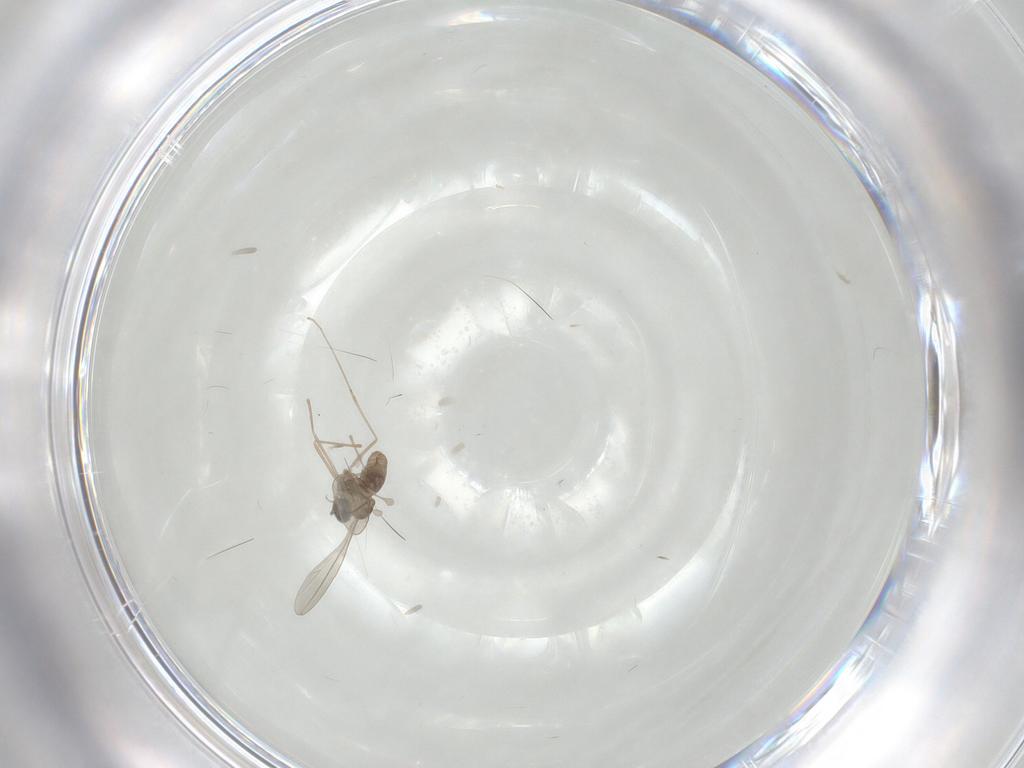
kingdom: Animalia
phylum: Arthropoda
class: Insecta
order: Diptera
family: Cecidomyiidae
